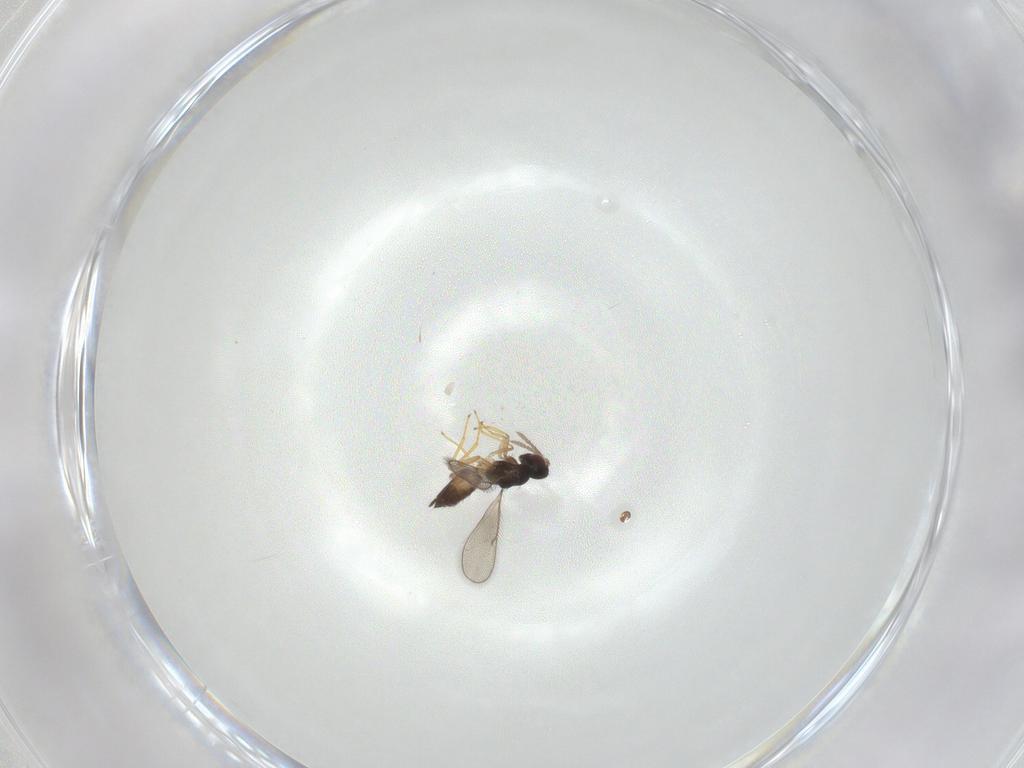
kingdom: Animalia
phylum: Arthropoda
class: Insecta
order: Hymenoptera
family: Eulophidae
